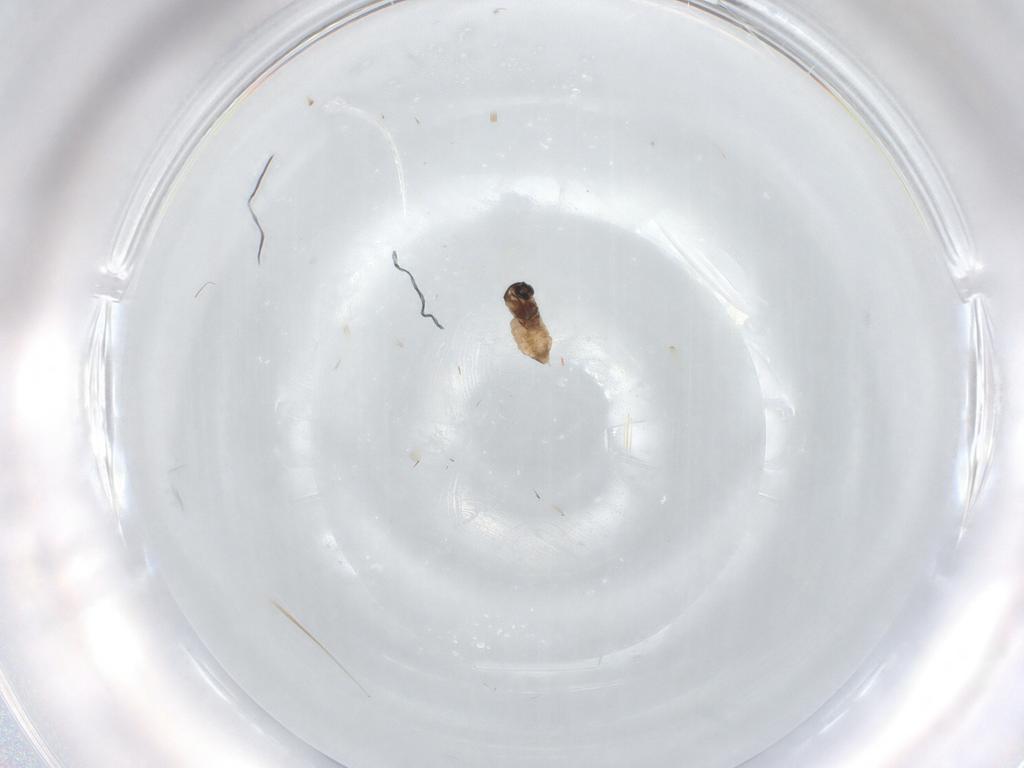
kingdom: Animalia
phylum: Arthropoda
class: Insecta
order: Diptera
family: Cecidomyiidae
